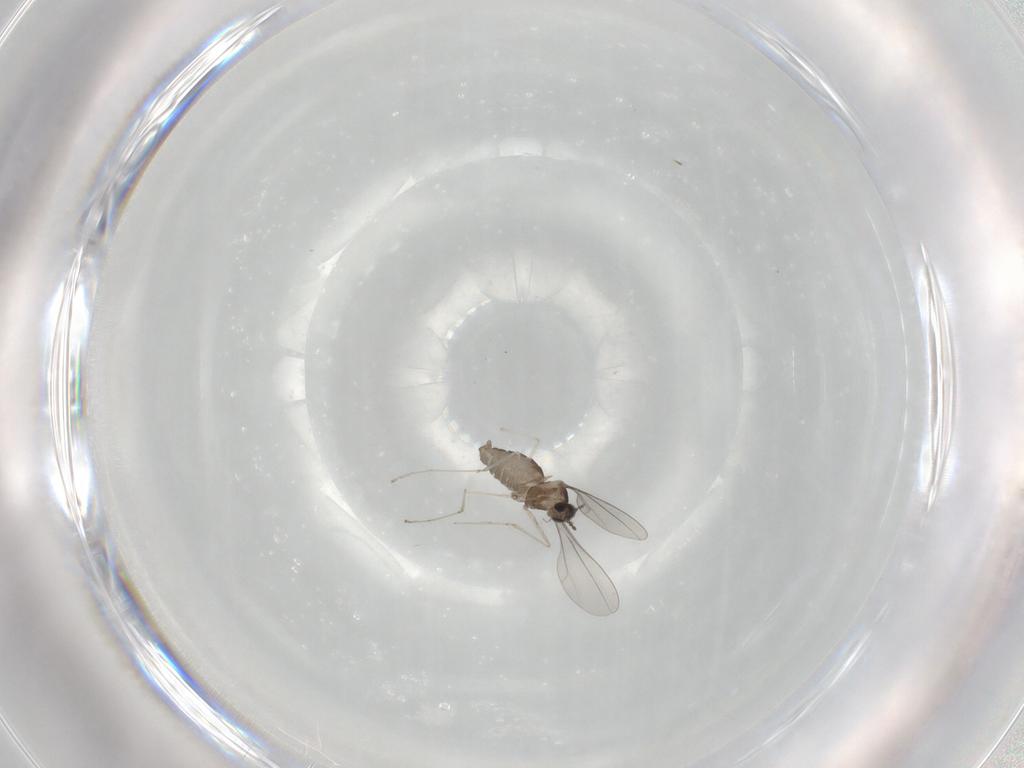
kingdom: Animalia
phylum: Arthropoda
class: Insecta
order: Diptera
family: Cecidomyiidae
